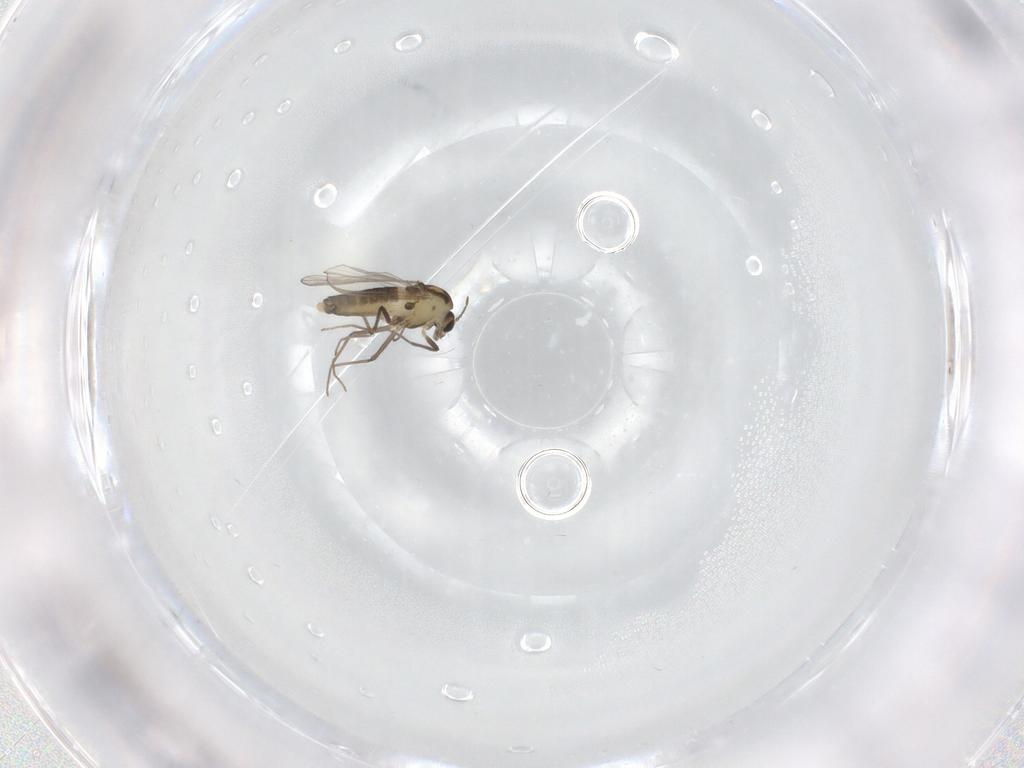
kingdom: Animalia
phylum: Arthropoda
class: Insecta
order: Diptera
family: Chironomidae
